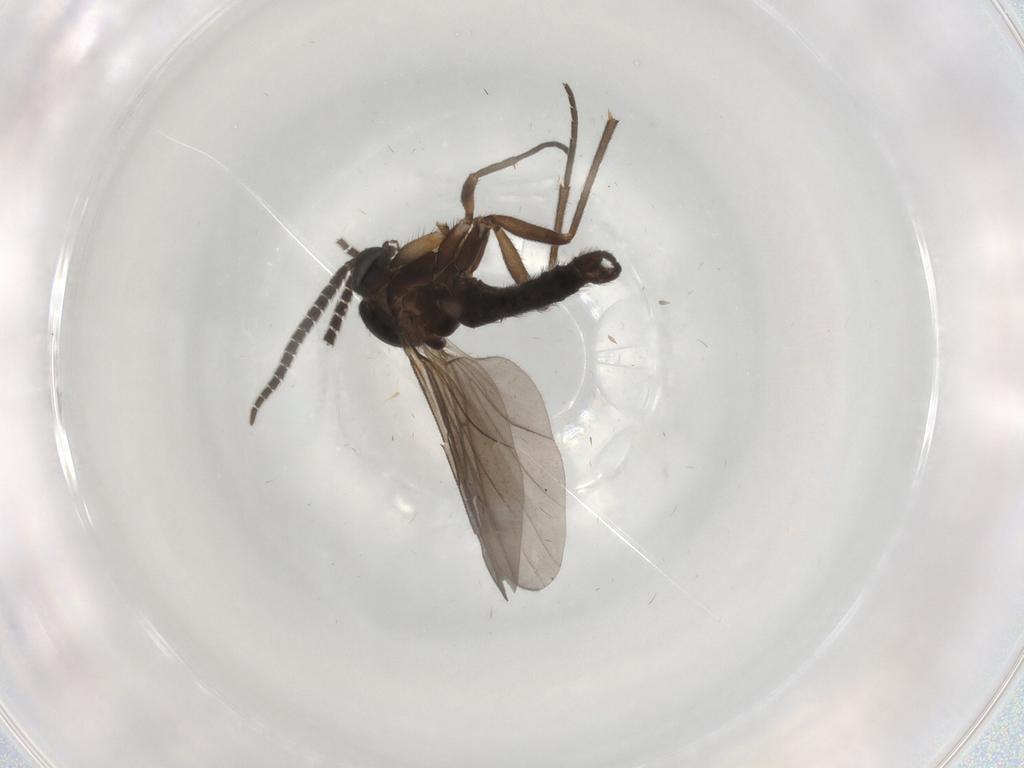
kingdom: Animalia
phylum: Arthropoda
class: Insecta
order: Diptera
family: Sciaridae
